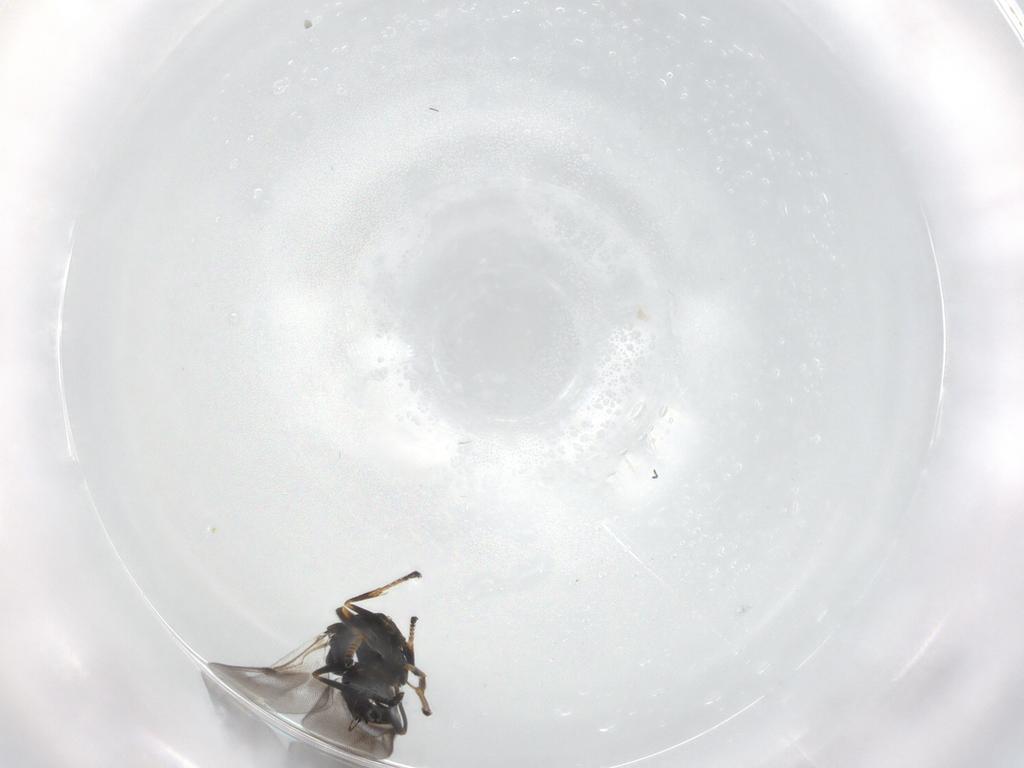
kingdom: Animalia
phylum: Arthropoda
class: Insecta
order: Hymenoptera
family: Encyrtidae
